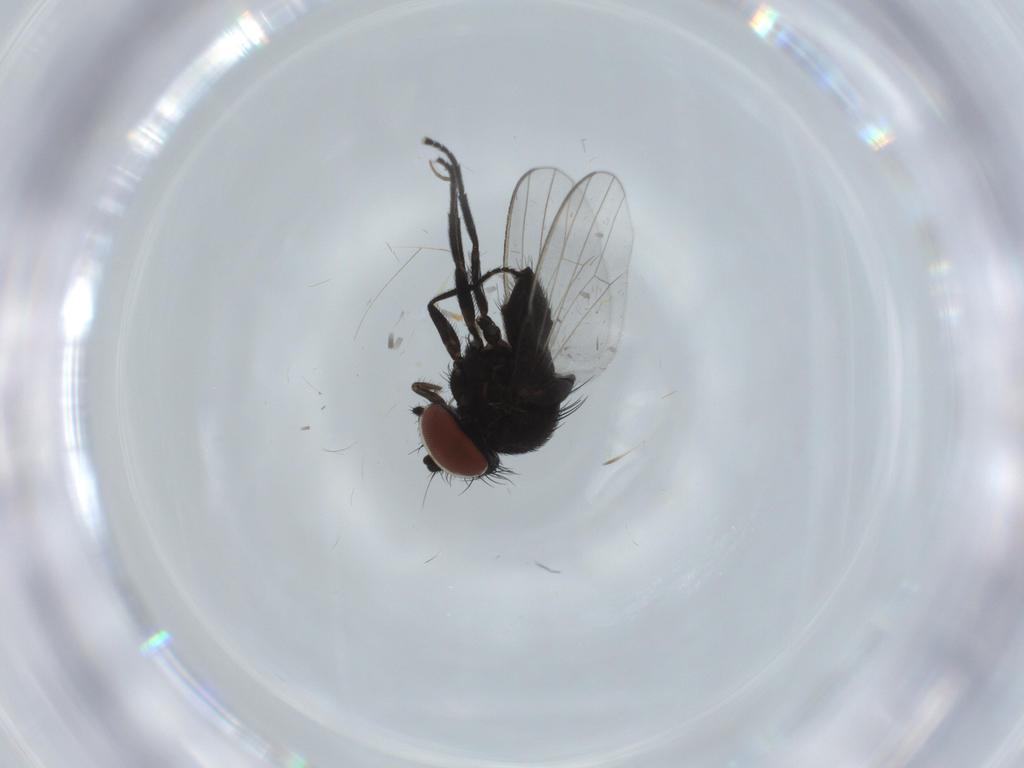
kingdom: Animalia
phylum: Arthropoda
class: Insecta
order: Diptera
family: Milichiidae
